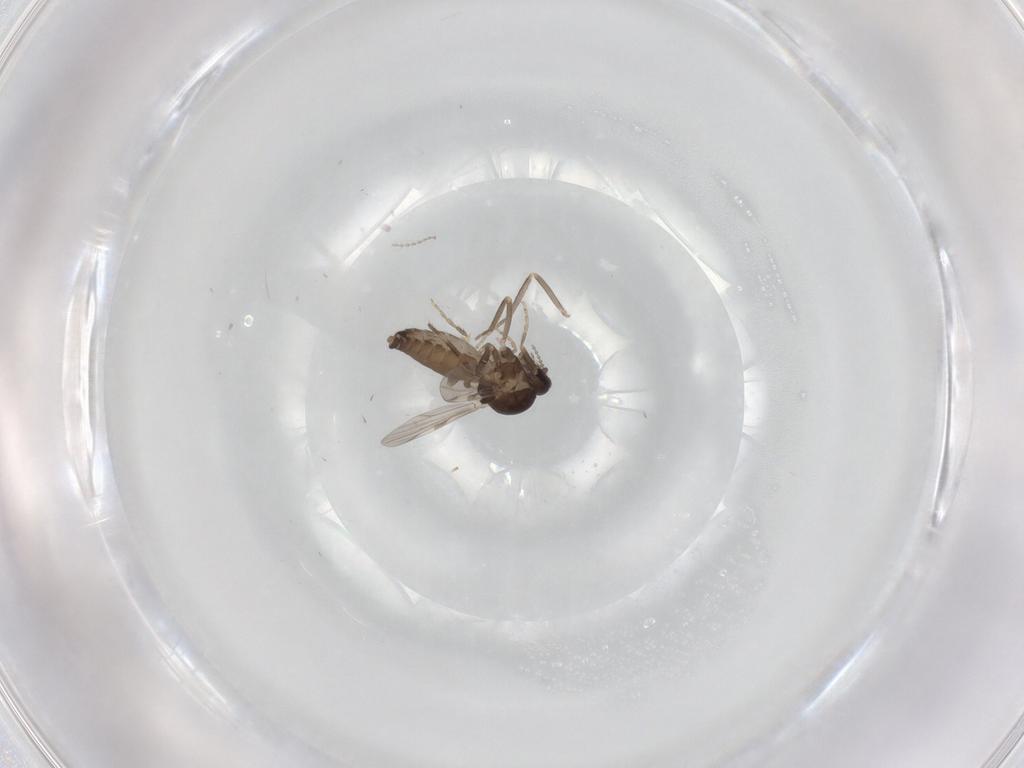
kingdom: Animalia
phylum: Arthropoda
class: Insecta
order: Diptera
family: Ceratopogonidae
